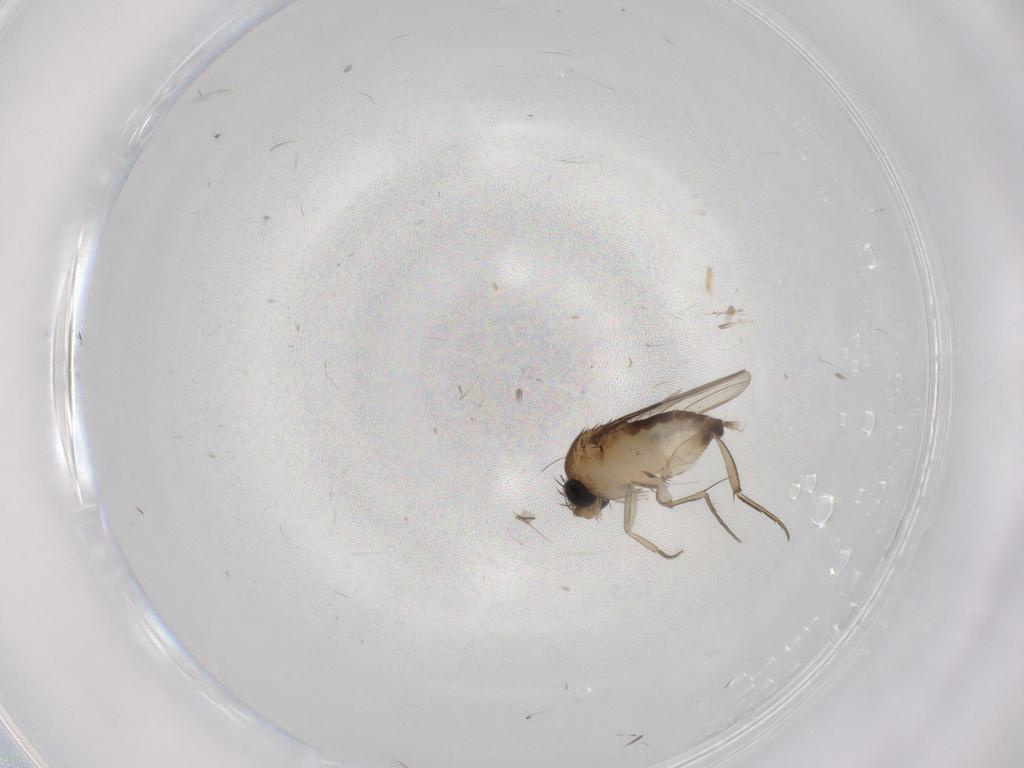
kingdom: Animalia
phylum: Arthropoda
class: Insecta
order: Diptera
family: Phoridae
